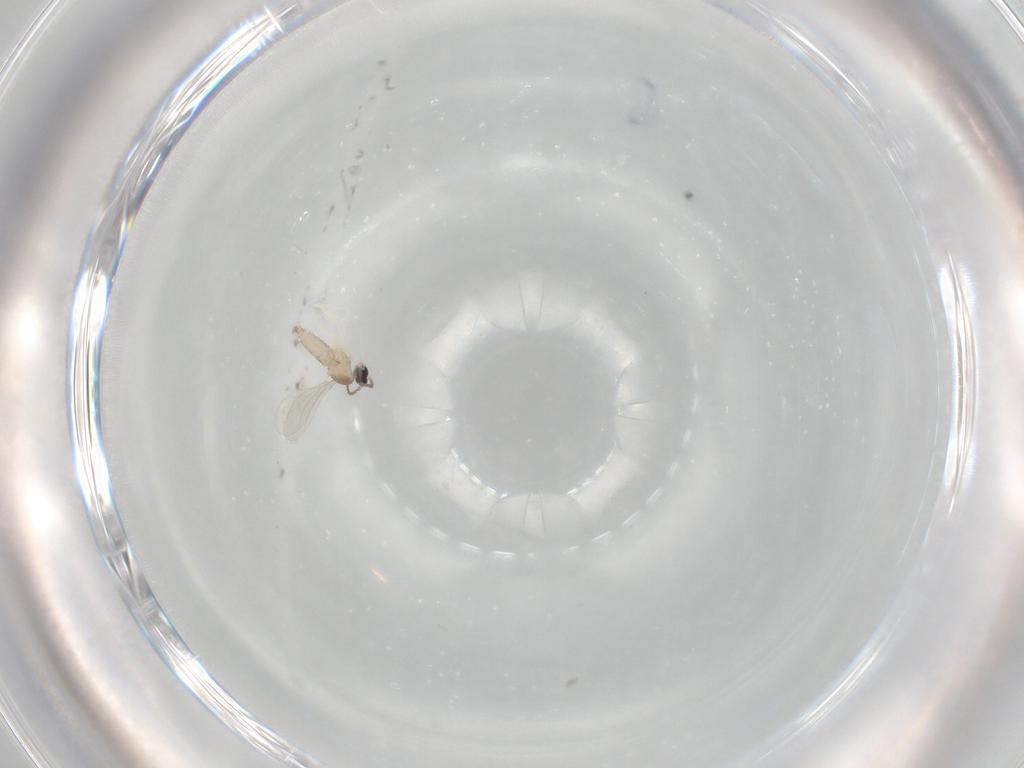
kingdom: Animalia
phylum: Arthropoda
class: Insecta
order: Diptera
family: Cecidomyiidae
